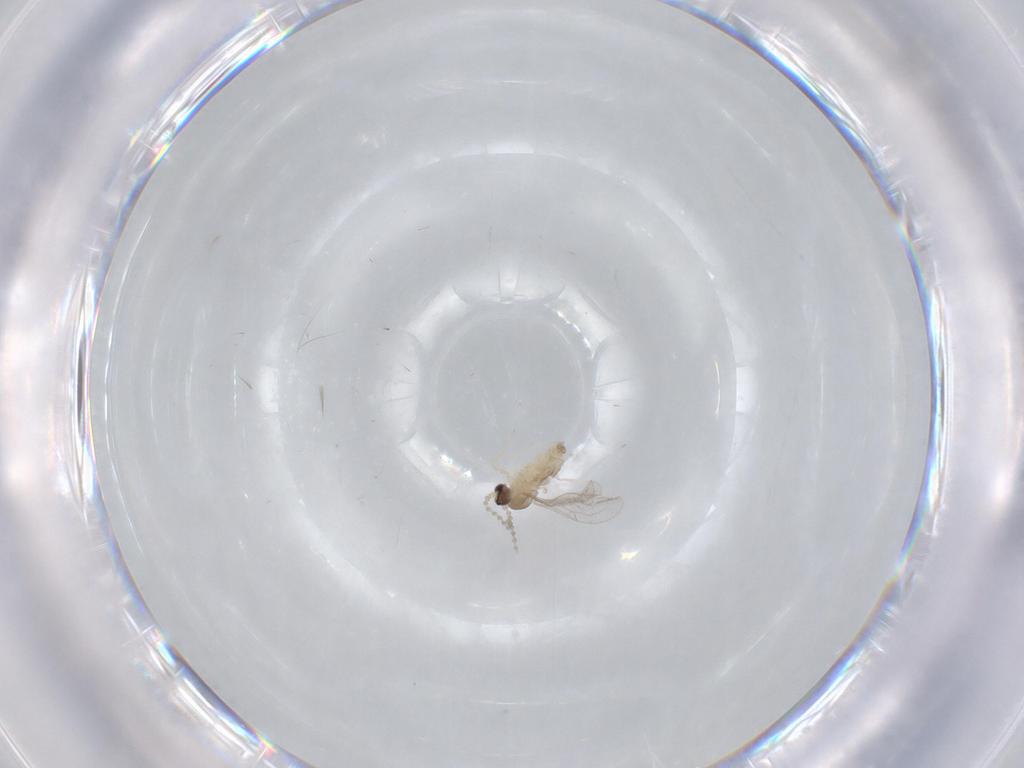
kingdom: Animalia
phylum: Arthropoda
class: Insecta
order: Diptera
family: Cecidomyiidae
